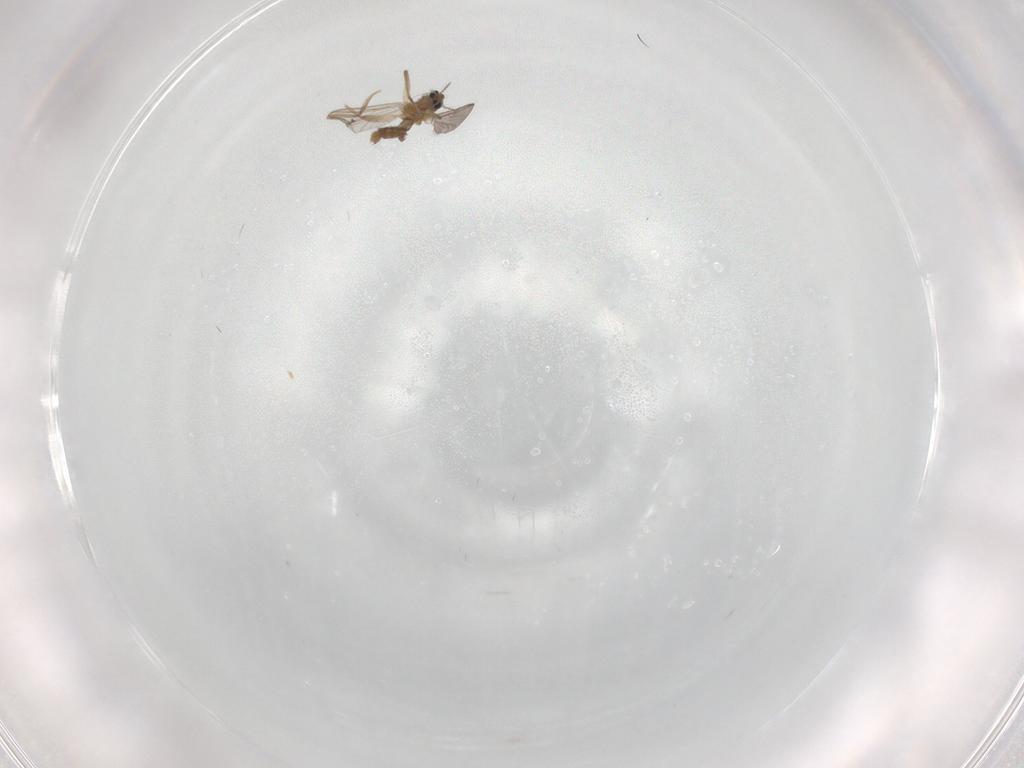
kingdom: Animalia
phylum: Arthropoda
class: Insecta
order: Diptera
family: Chironomidae
